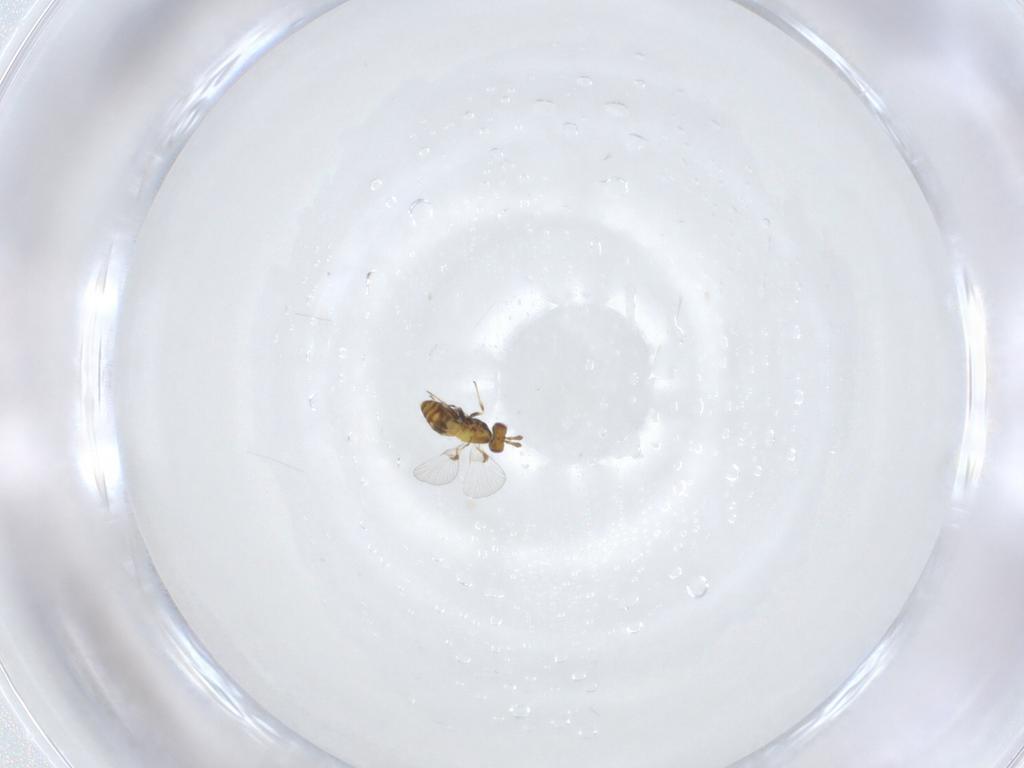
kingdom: Animalia
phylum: Arthropoda
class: Insecta
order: Hymenoptera
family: Trichogrammatidae
